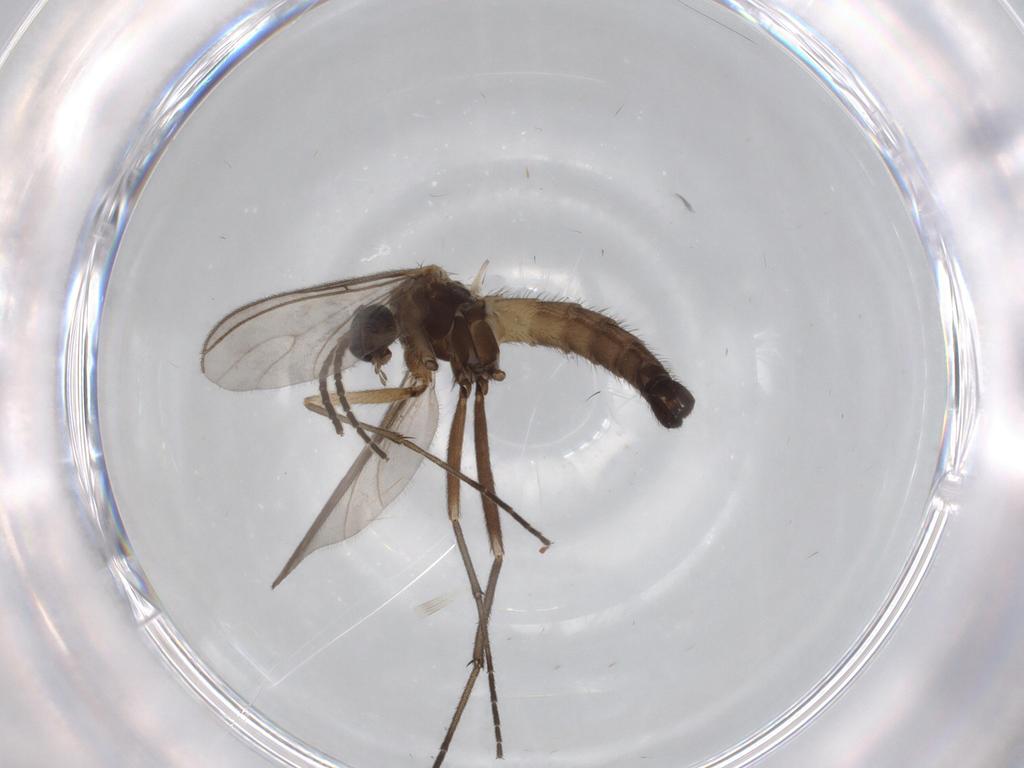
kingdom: Animalia
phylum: Arthropoda
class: Insecta
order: Diptera
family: Sciaridae
